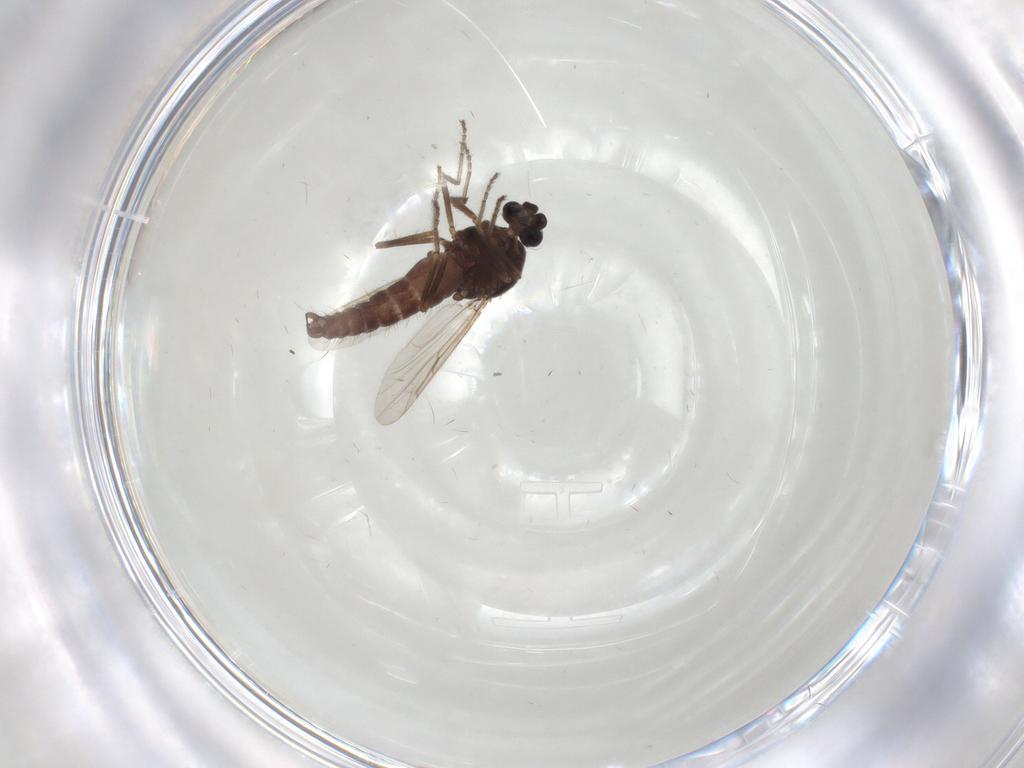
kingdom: Animalia
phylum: Arthropoda
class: Insecta
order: Diptera
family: Ceratopogonidae
